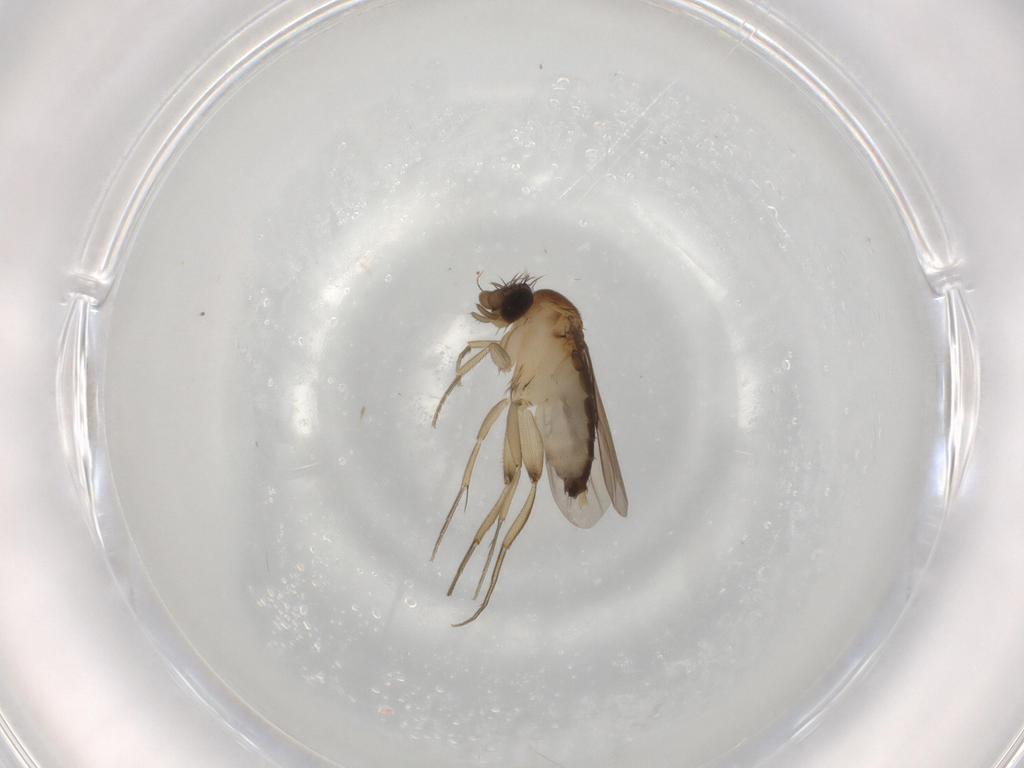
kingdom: Animalia
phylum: Arthropoda
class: Insecta
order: Diptera
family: Phoridae
